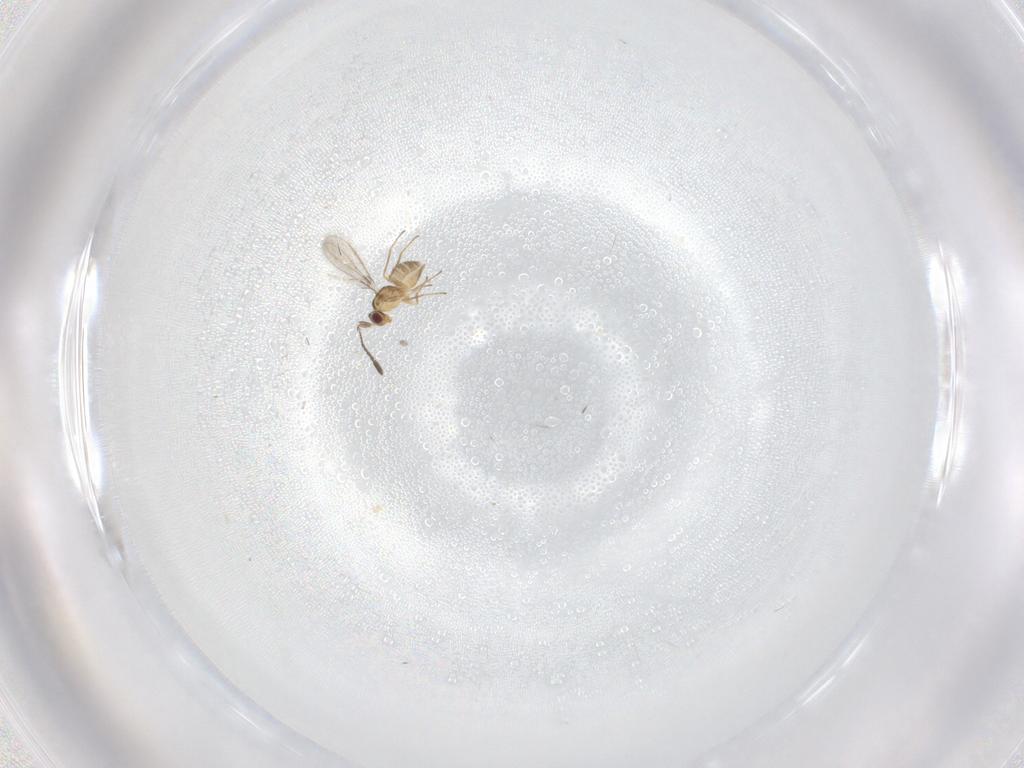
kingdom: Animalia
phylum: Arthropoda
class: Insecta
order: Hymenoptera
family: Mymaridae
